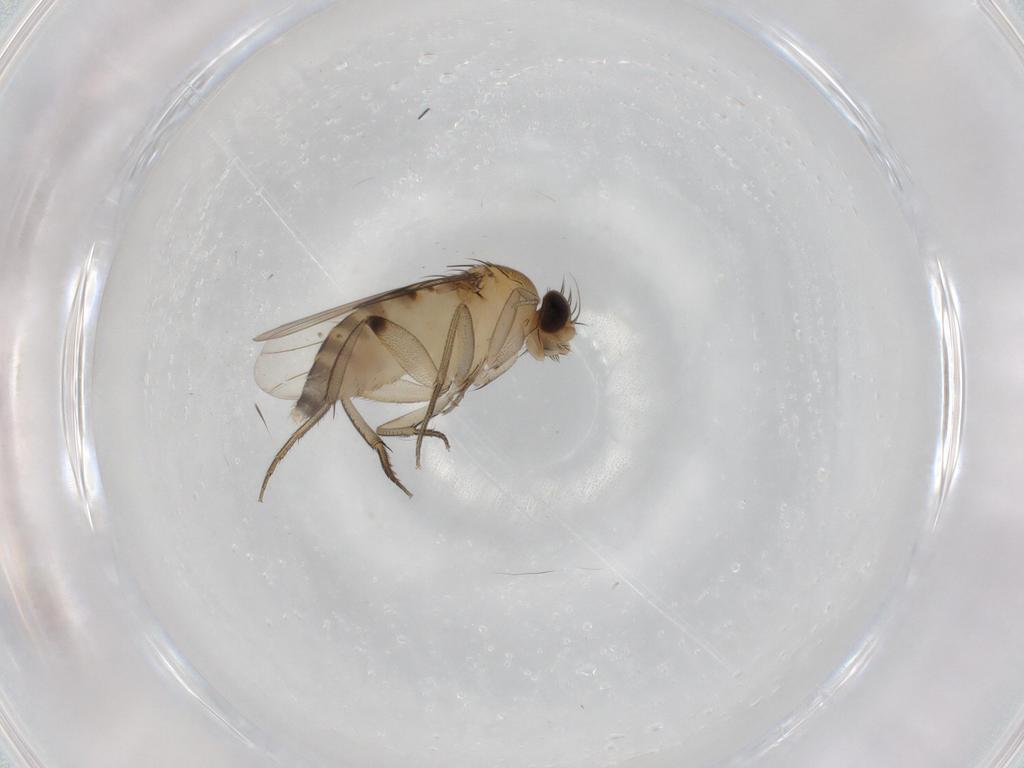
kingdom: Animalia
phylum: Arthropoda
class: Insecta
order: Diptera
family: Phoridae
